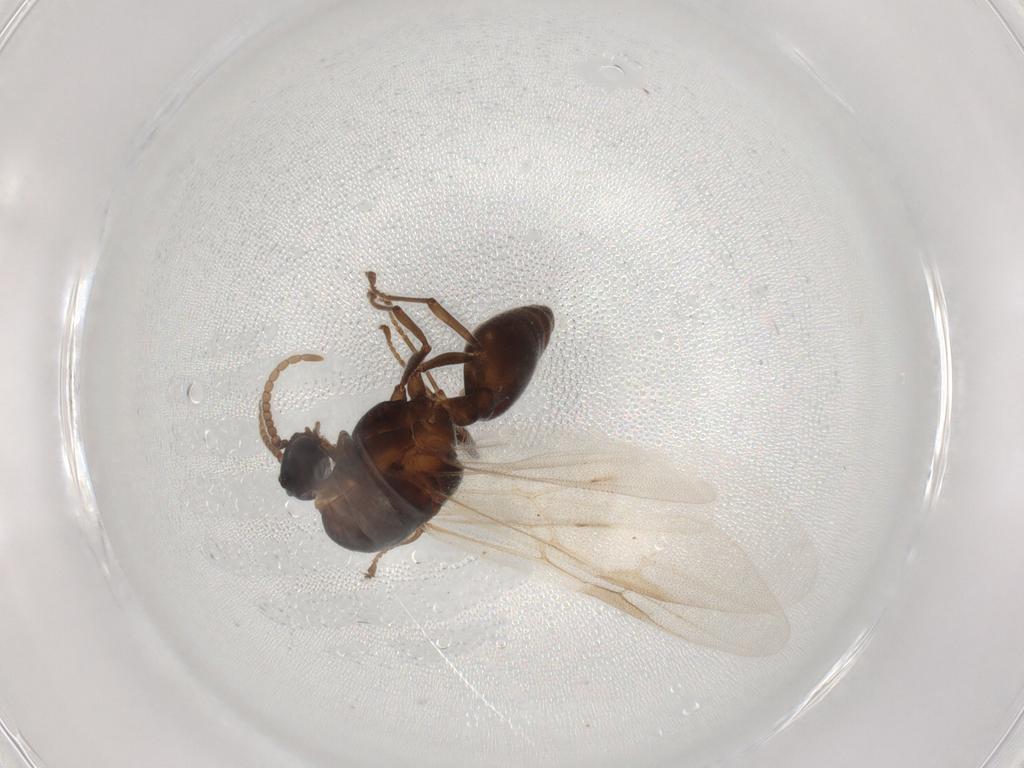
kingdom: Animalia
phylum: Arthropoda
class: Insecta
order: Hymenoptera
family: Formicidae
